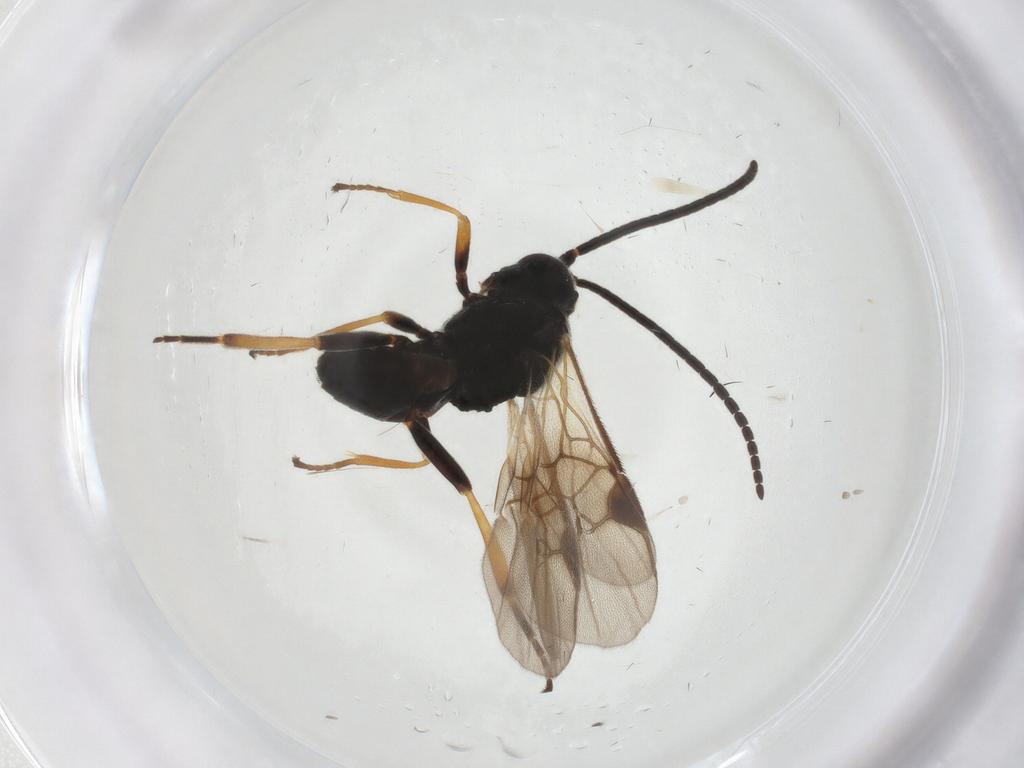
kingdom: Animalia
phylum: Arthropoda
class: Insecta
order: Hymenoptera
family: Braconidae
